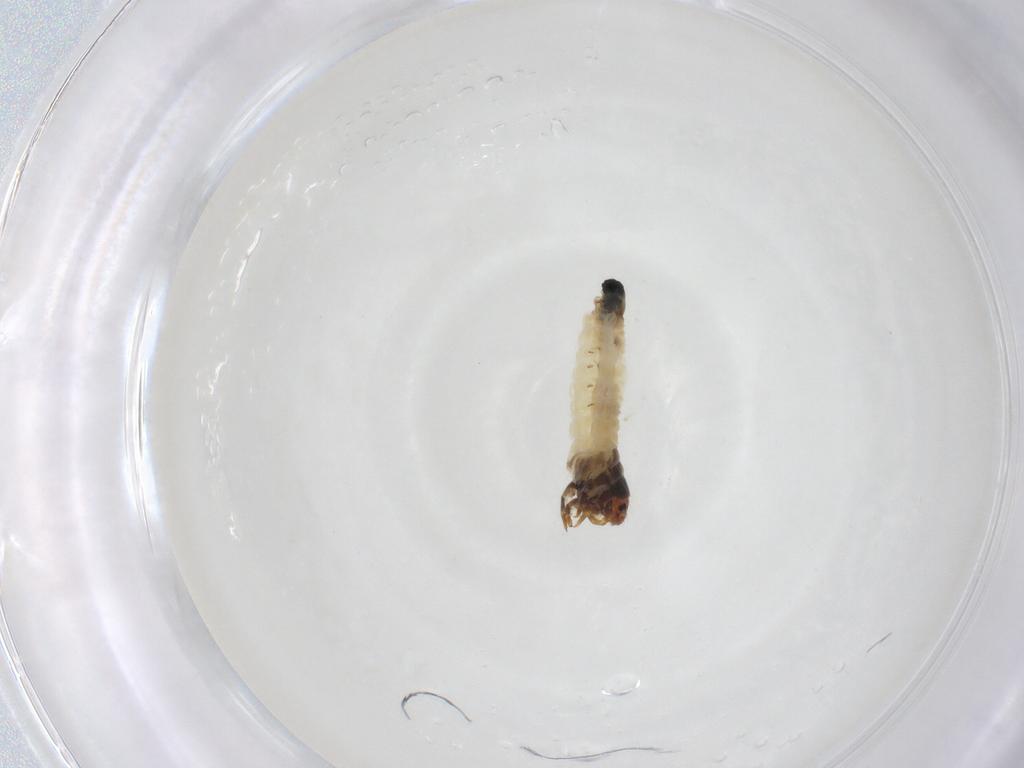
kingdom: Animalia
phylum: Arthropoda
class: Insecta
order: Lepidoptera
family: Psychidae
